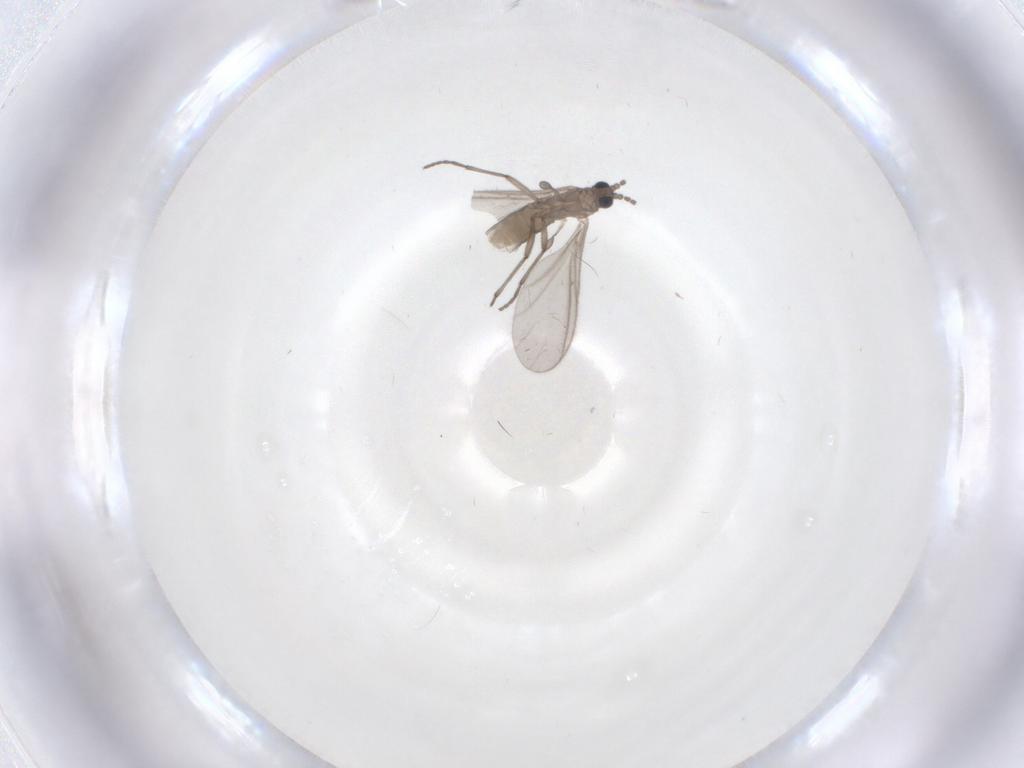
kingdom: Animalia
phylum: Arthropoda
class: Insecta
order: Diptera
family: Sciaridae
